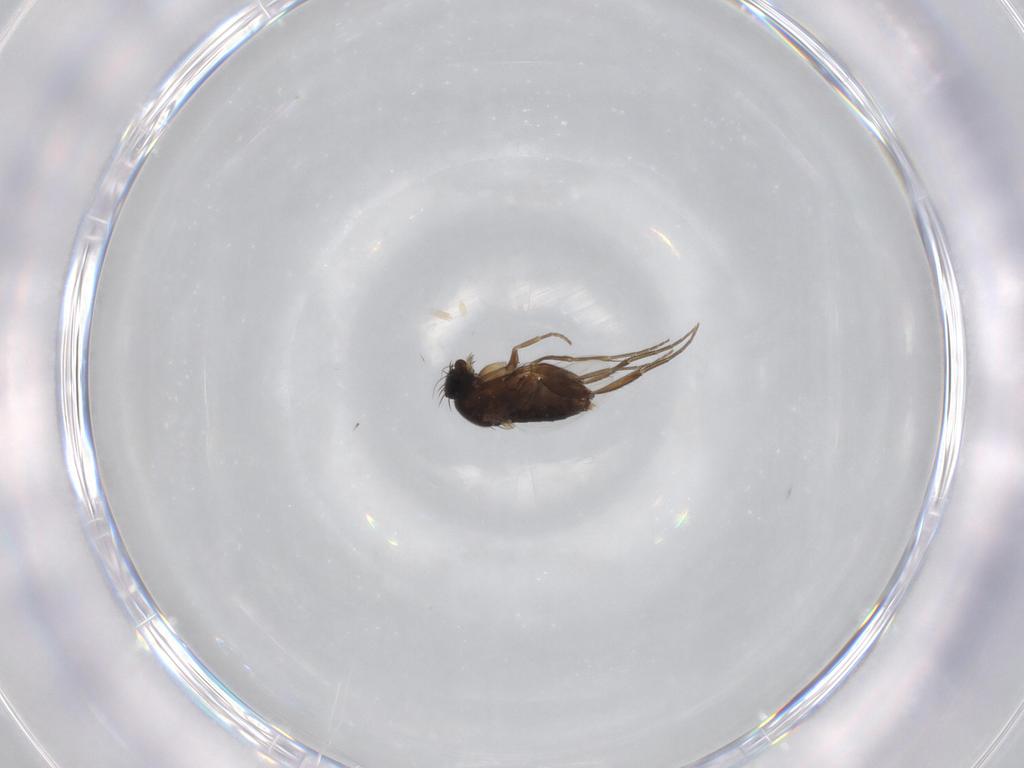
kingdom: Animalia
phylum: Arthropoda
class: Insecta
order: Diptera
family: Phoridae
